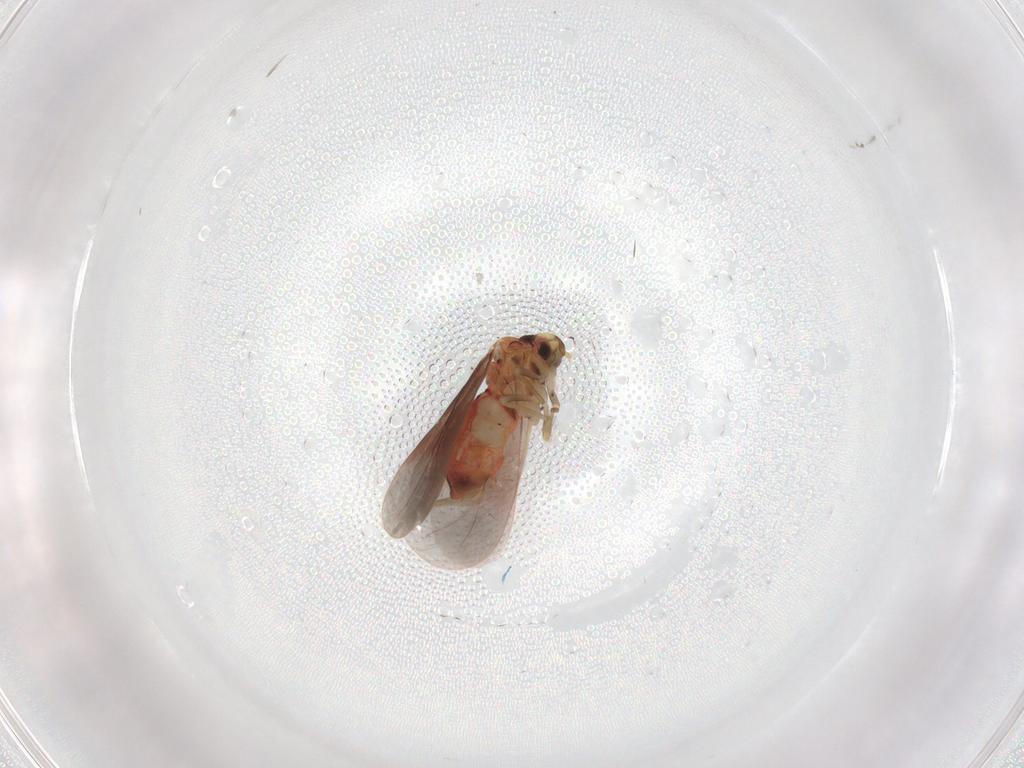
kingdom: Animalia
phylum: Arthropoda
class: Insecta
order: Hemiptera
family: Aleyrodidae
